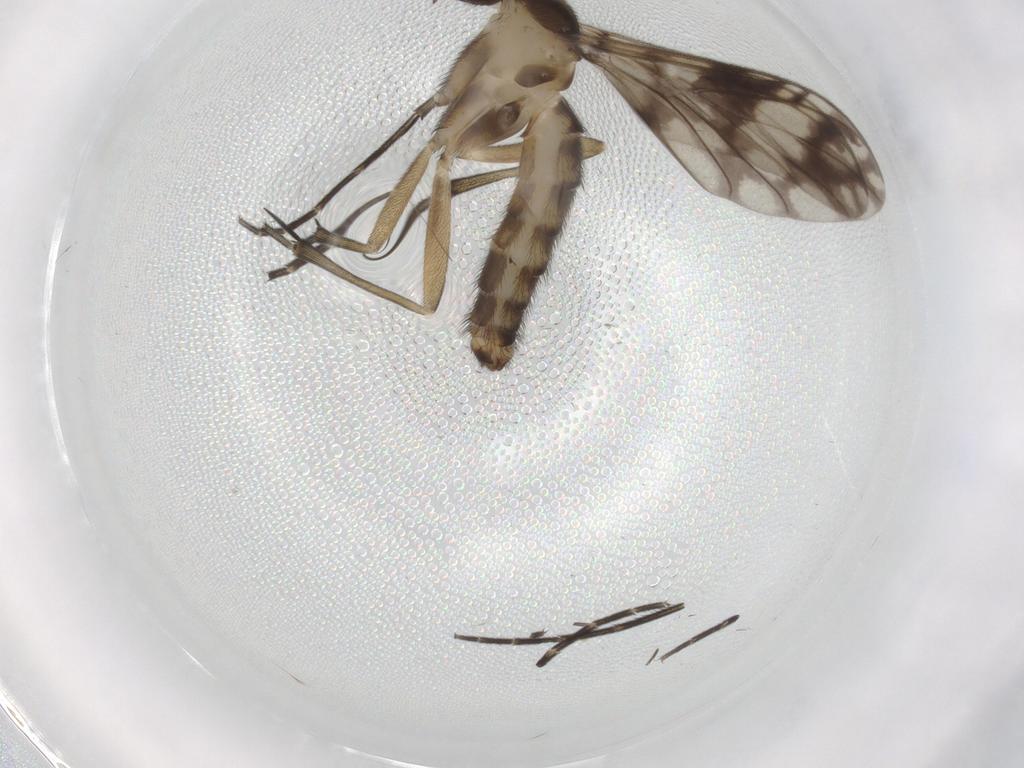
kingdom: Animalia
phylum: Arthropoda
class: Insecta
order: Diptera
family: Keroplatidae
